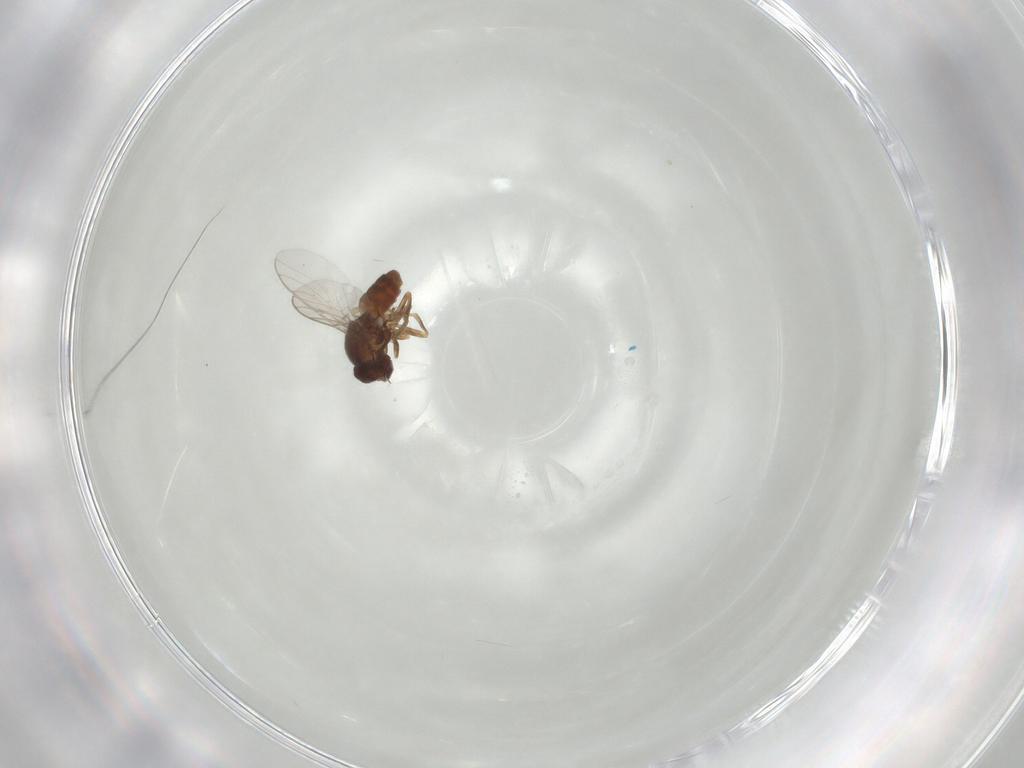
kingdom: Animalia
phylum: Arthropoda
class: Insecta
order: Diptera
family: Chloropidae
